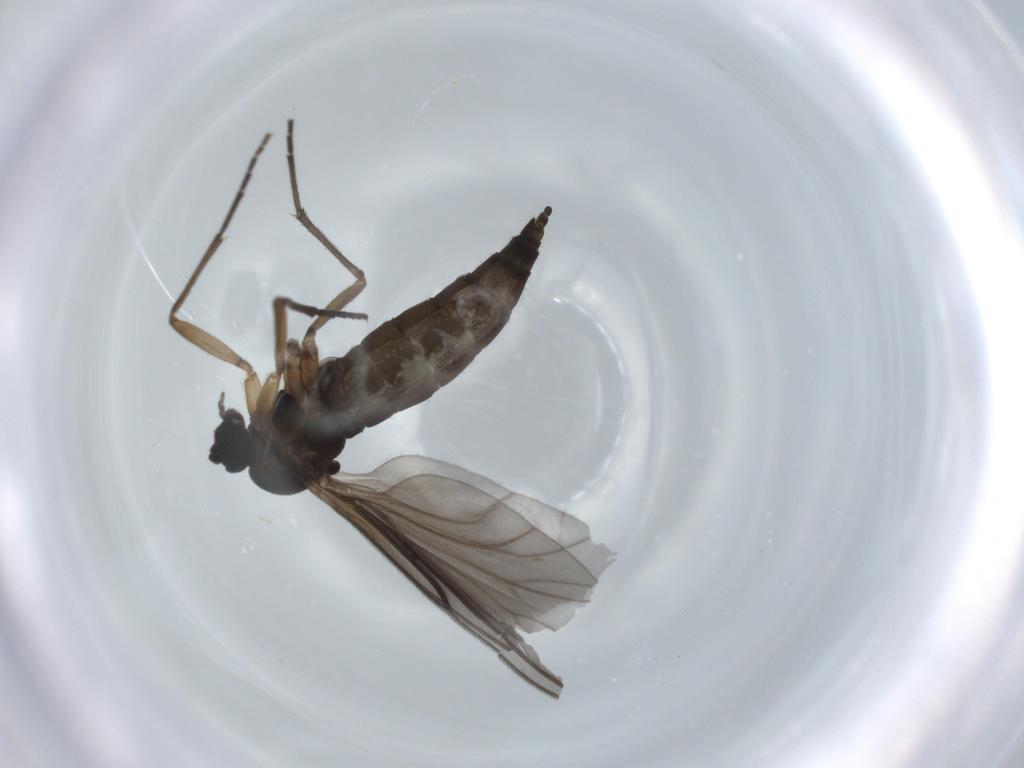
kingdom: Animalia
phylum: Arthropoda
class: Insecta
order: Diptera
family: Sciaridae
